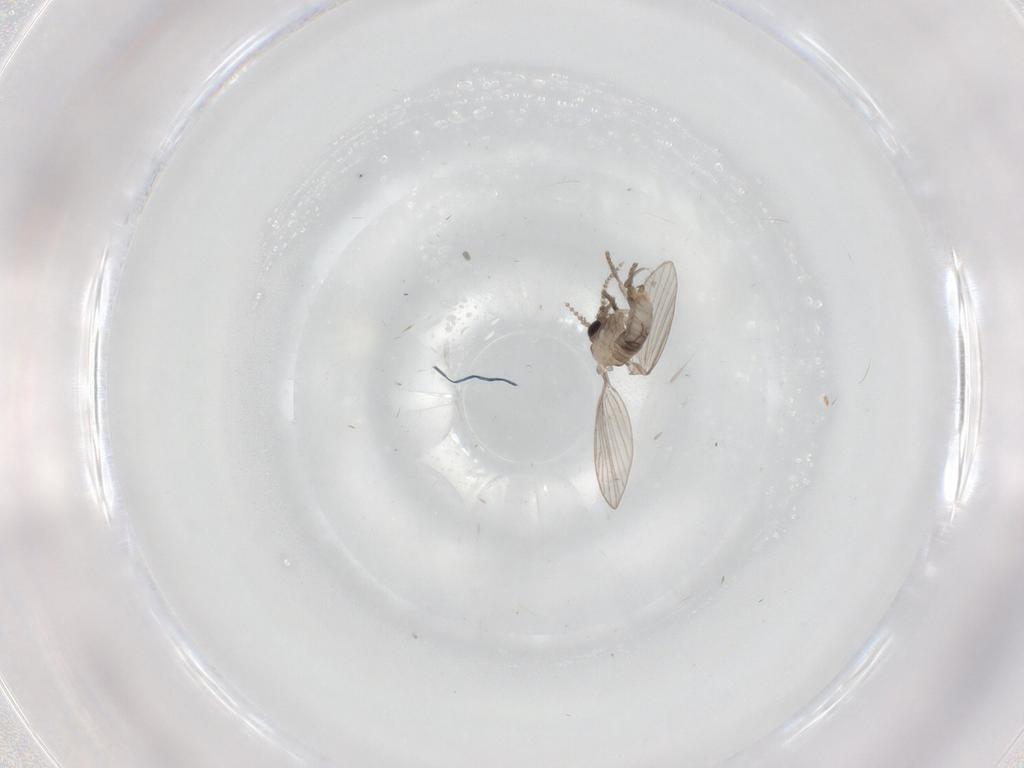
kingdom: Animalia
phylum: Arthropoda
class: Insecta
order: Diptera
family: Psychodidae
